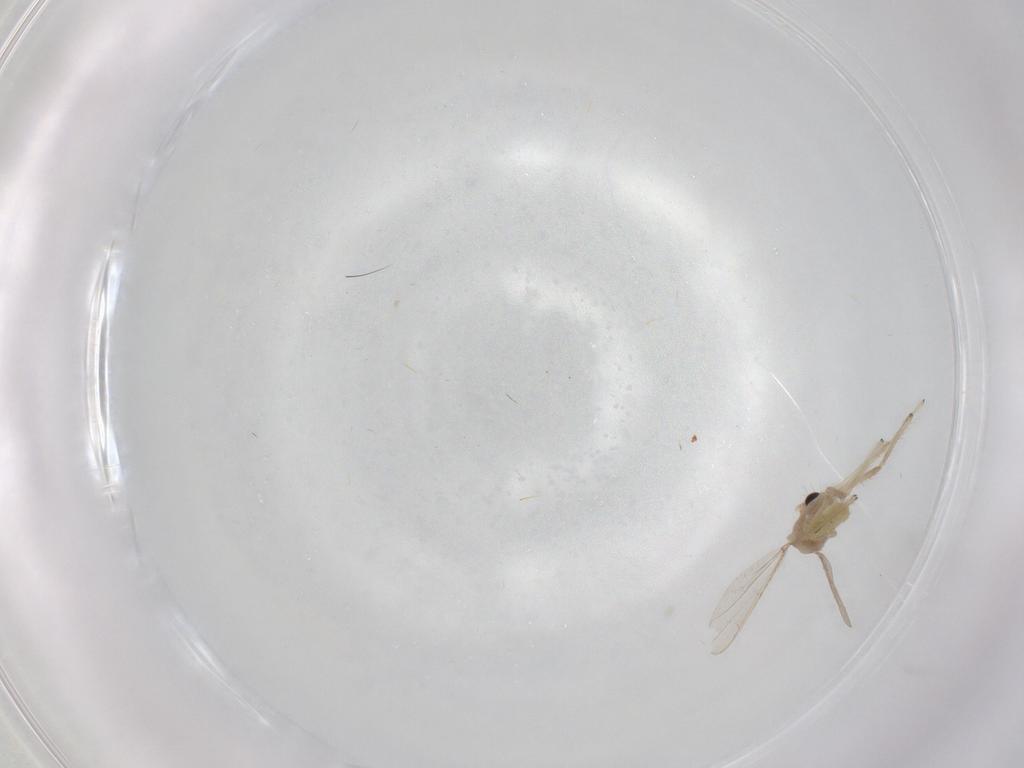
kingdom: Animalia
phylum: Arthropoda
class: Insecta
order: Diptera
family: Chironomidae
